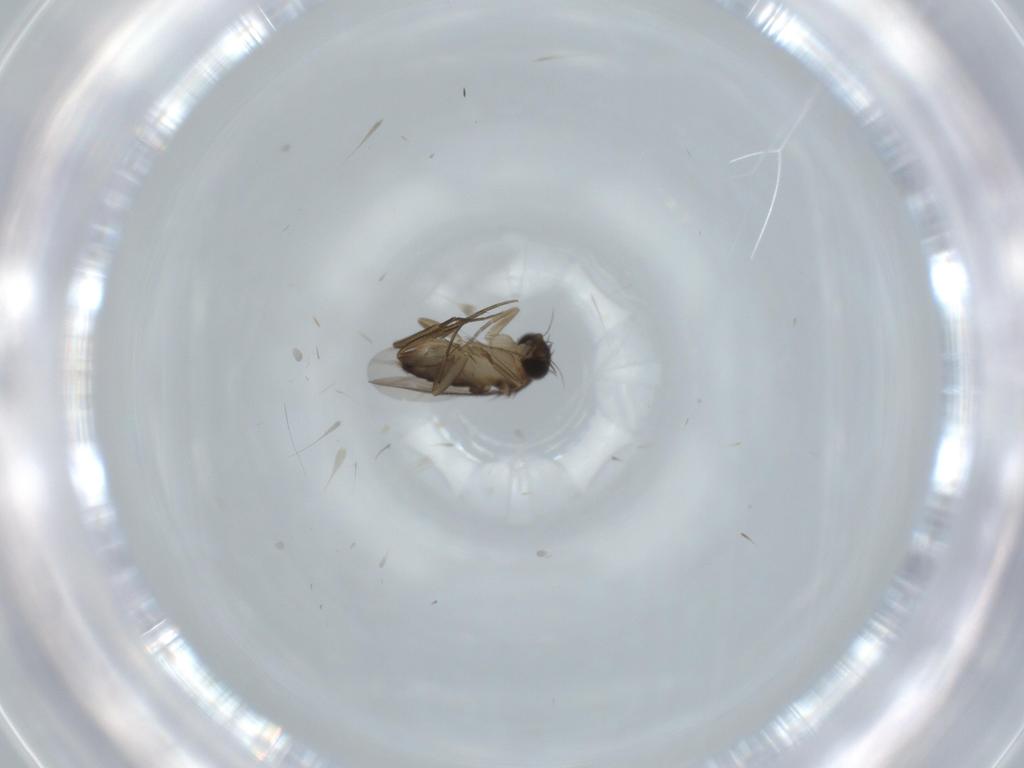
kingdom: Animalia
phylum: Arthropoda
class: Insecta
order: Diptera
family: Phoridae
